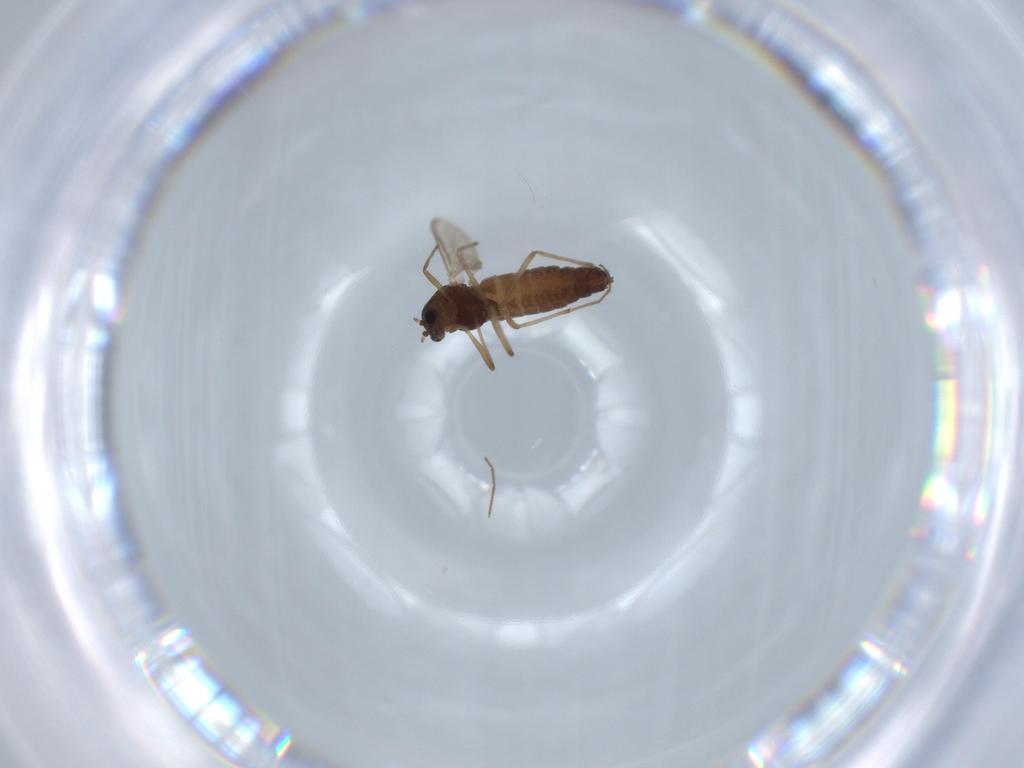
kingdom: Animalia
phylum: Arthropoda
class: Insecta
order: Diptera
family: Chironomidae
